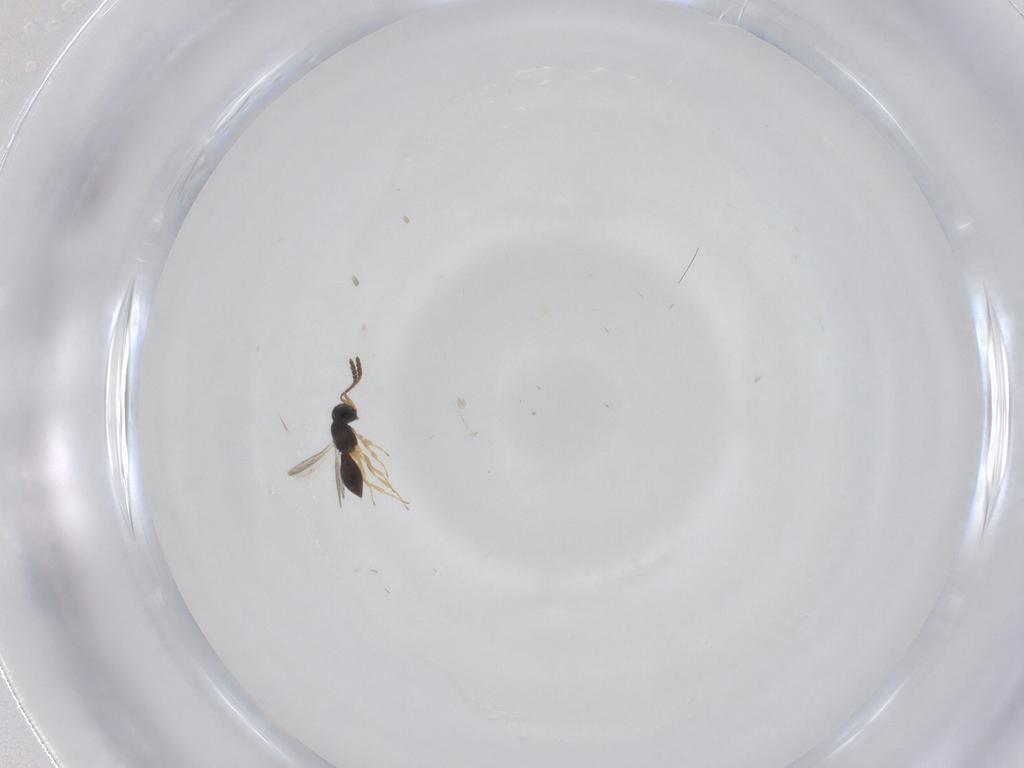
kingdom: Animalia
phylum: Arthropoda
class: Insecta
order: Hymenoptera
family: Scelionidae
